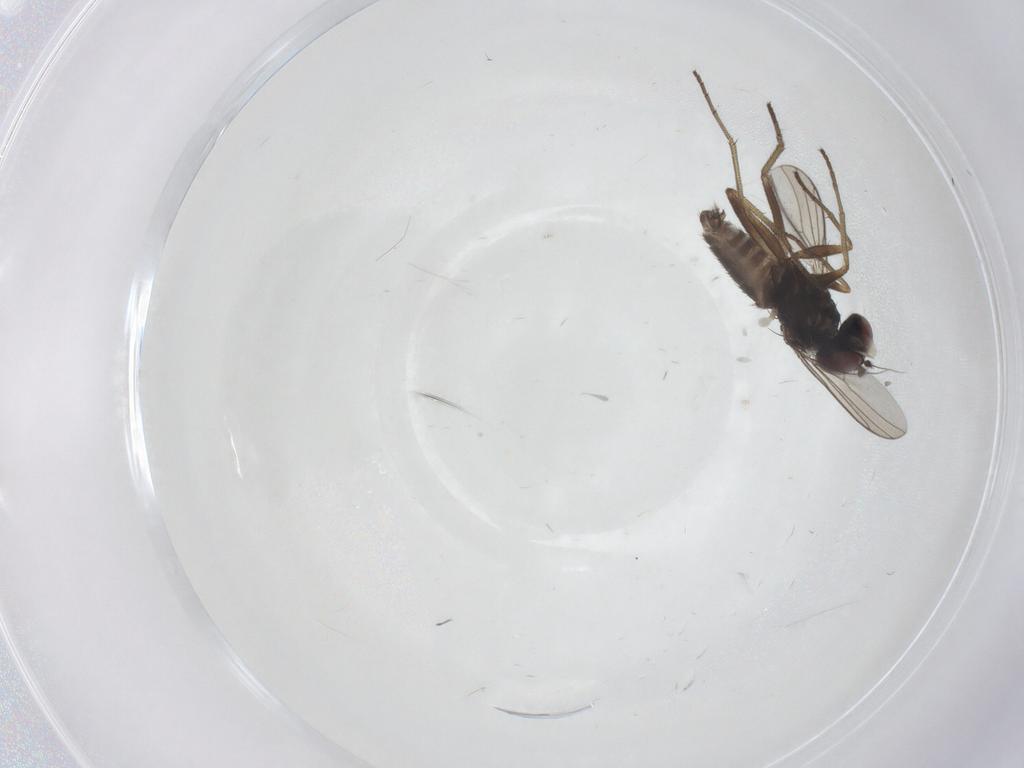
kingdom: Animalia
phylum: Arthropoda
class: Insecta
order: Diptera
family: Dolichopodidae
